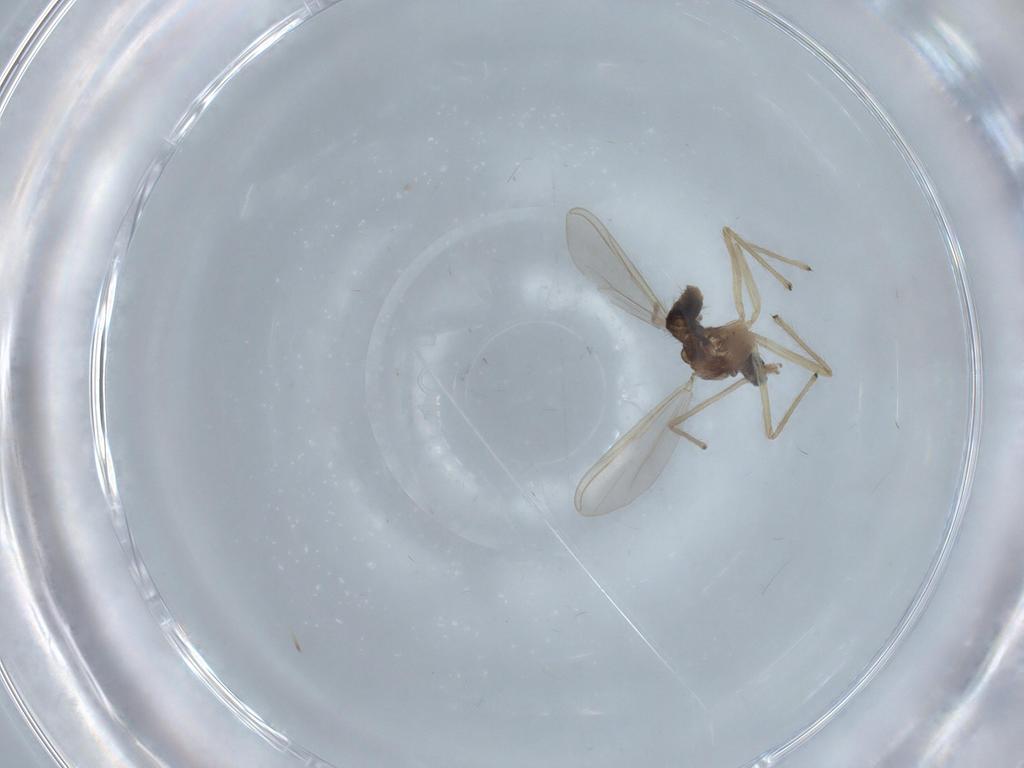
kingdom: Animalia
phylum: Arthropoda
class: Insecta
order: Diptera
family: Chironomidae
